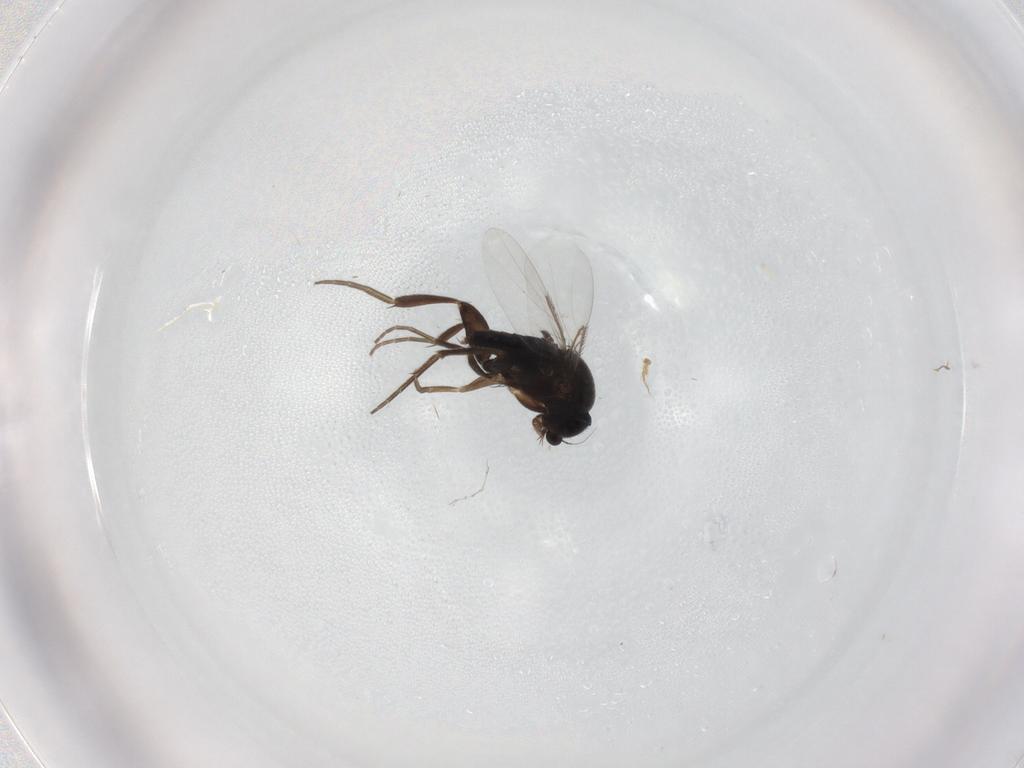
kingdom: Animalia
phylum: Arthropoda
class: Insecta
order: Diptera
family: Phoridae
